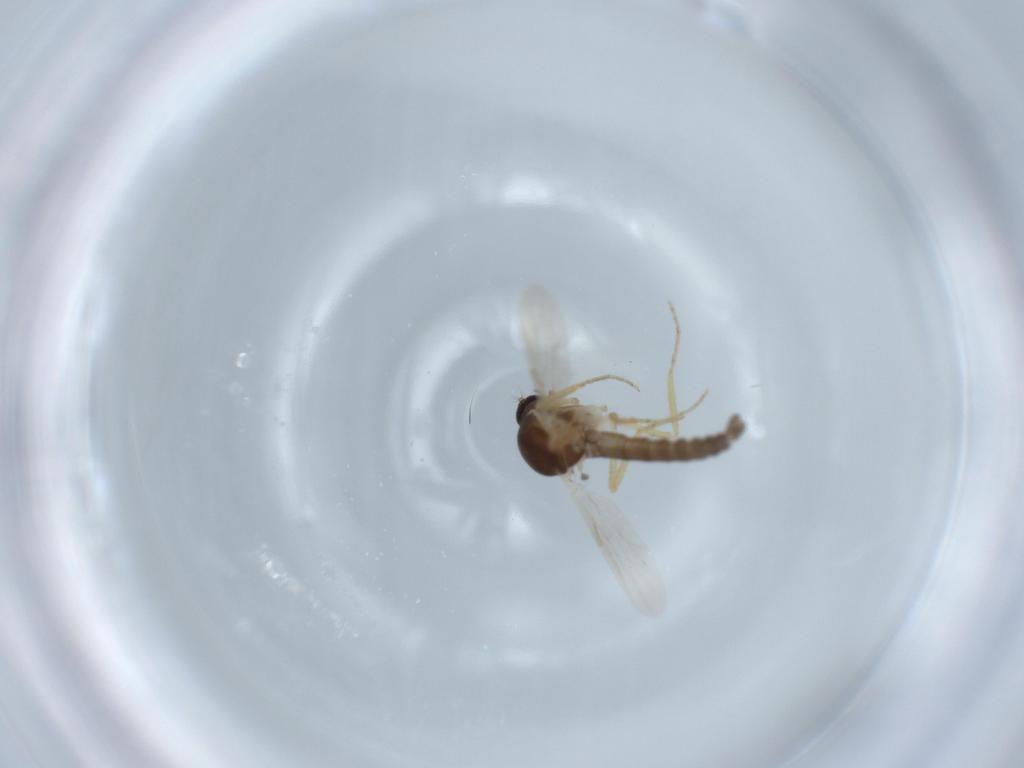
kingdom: Animalia
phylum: Arthropoda
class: Insecta
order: Diptera
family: Ceratopogonidae
